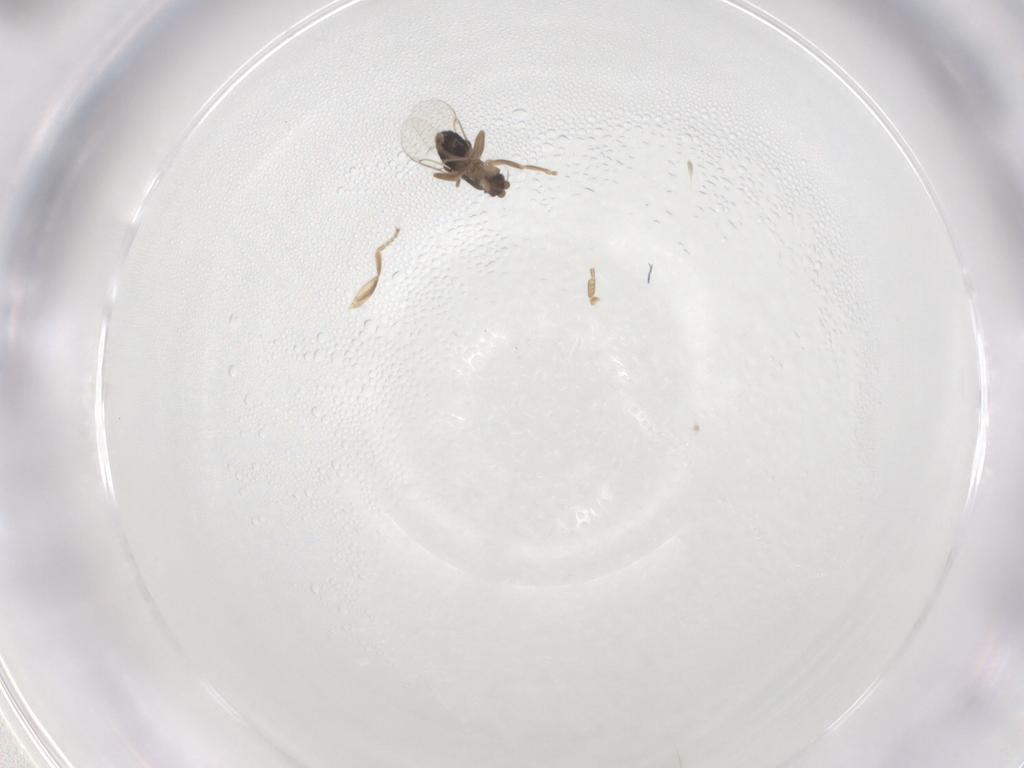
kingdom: Animalia
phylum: Arthropoda
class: Insecta
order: Diptera
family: Phoridae
